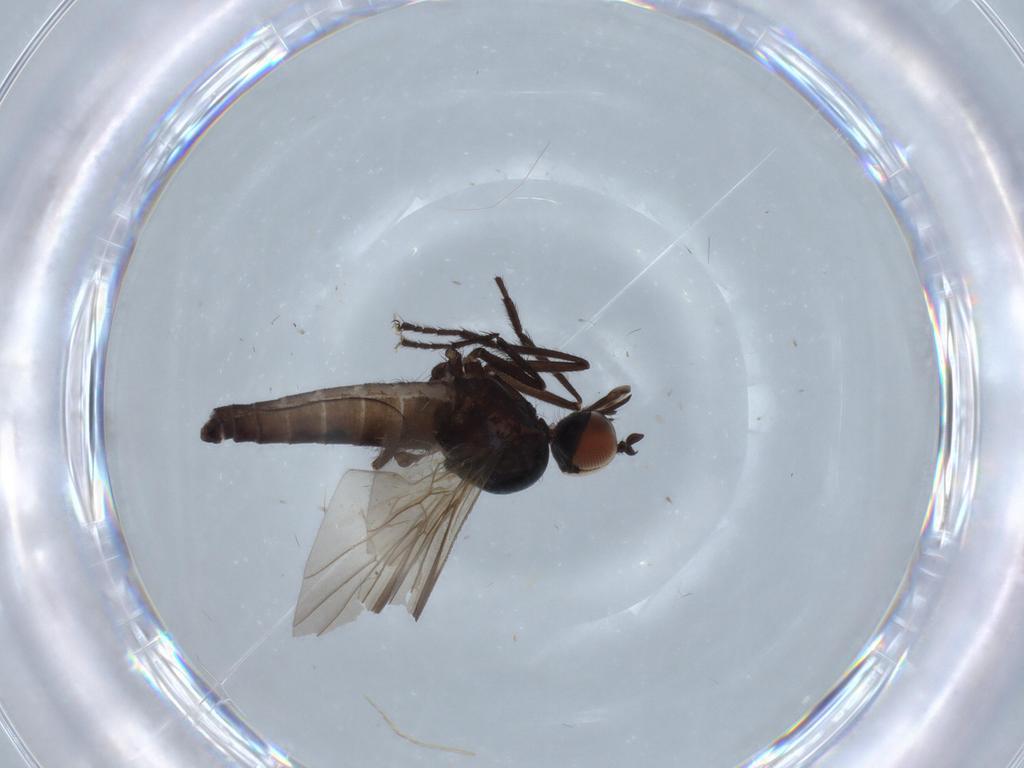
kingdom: Animalia
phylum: Arthropoda
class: Insecta
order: Diptera
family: Empididae
